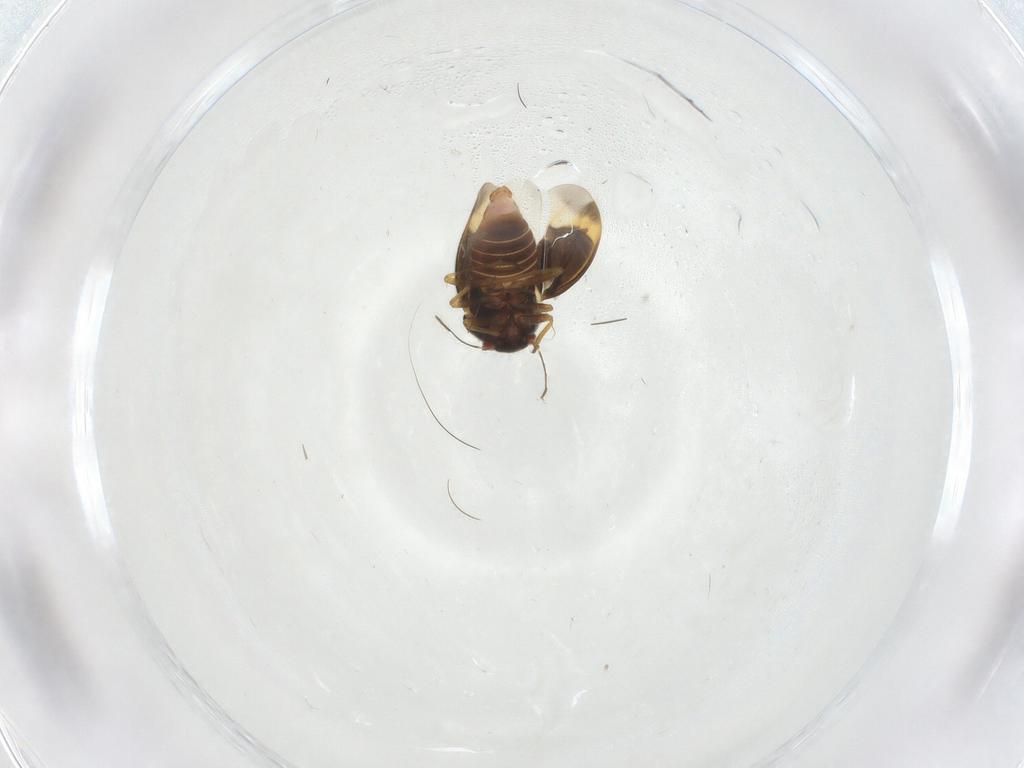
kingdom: Animalia
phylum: Arthropoda
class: Insecta
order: Hemiptera
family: Schizopteridae
